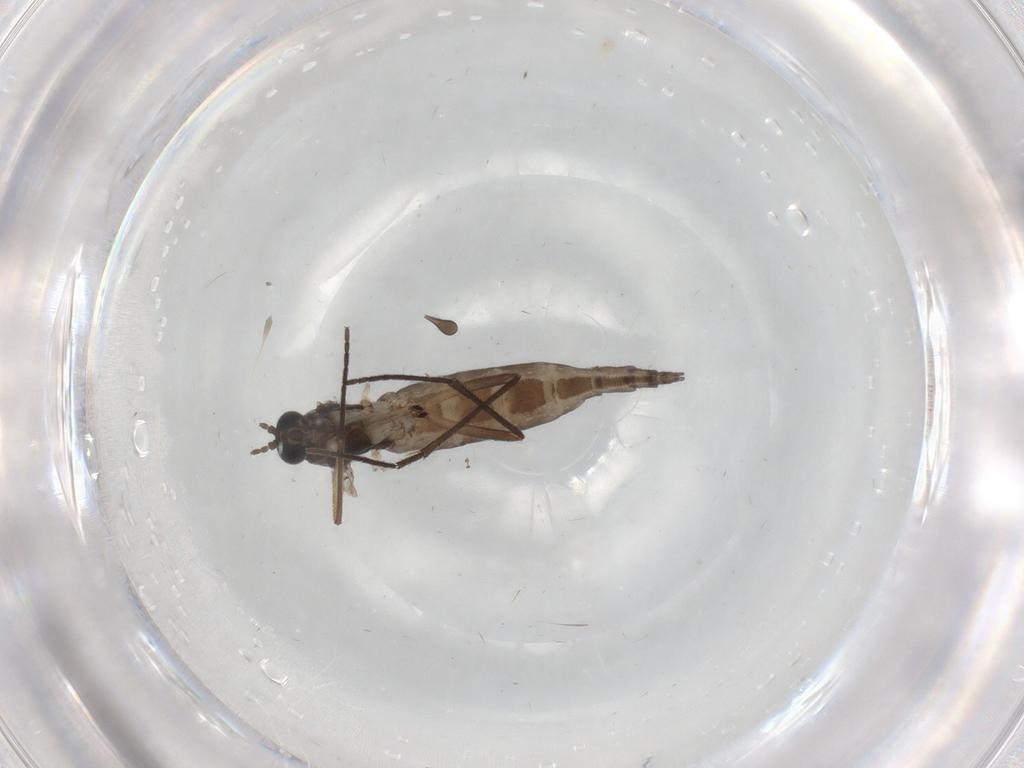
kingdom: Animalia
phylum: Arthropoda
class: Insecta
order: Diptera
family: Sciaridae
